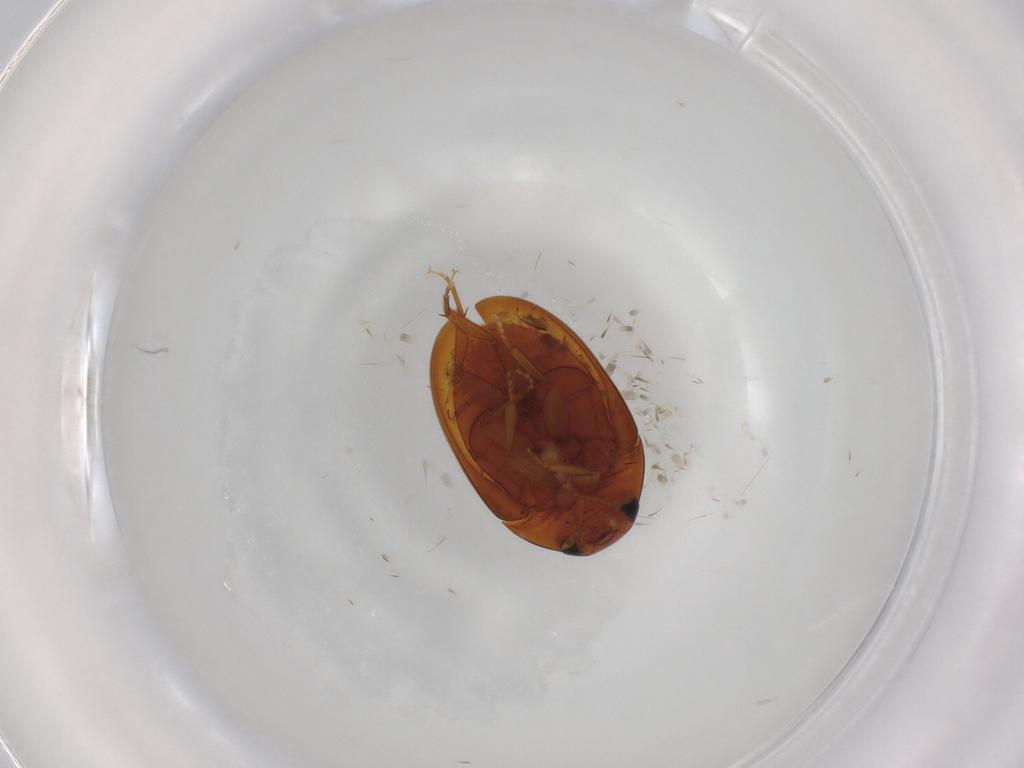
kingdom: Animalia
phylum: Arthropoda
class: Insecta
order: Coleoptera
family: Phalacridae
